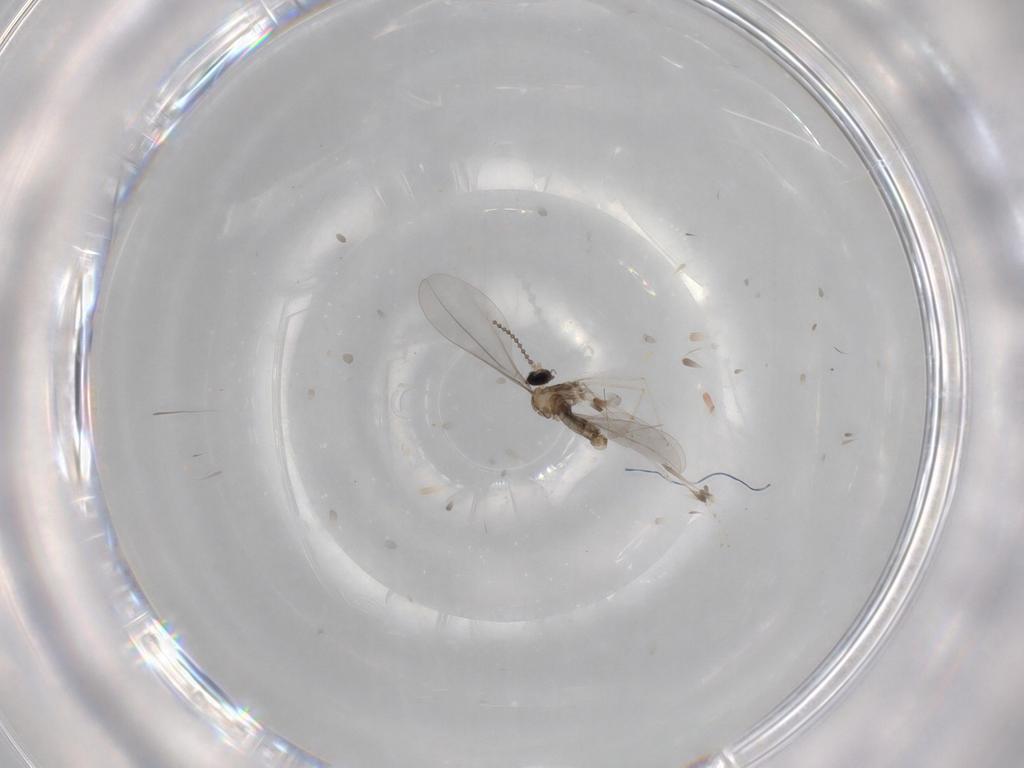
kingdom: Animalia
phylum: Arthropoda
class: Insecta
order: Diptera
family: Cecidomyiidae
